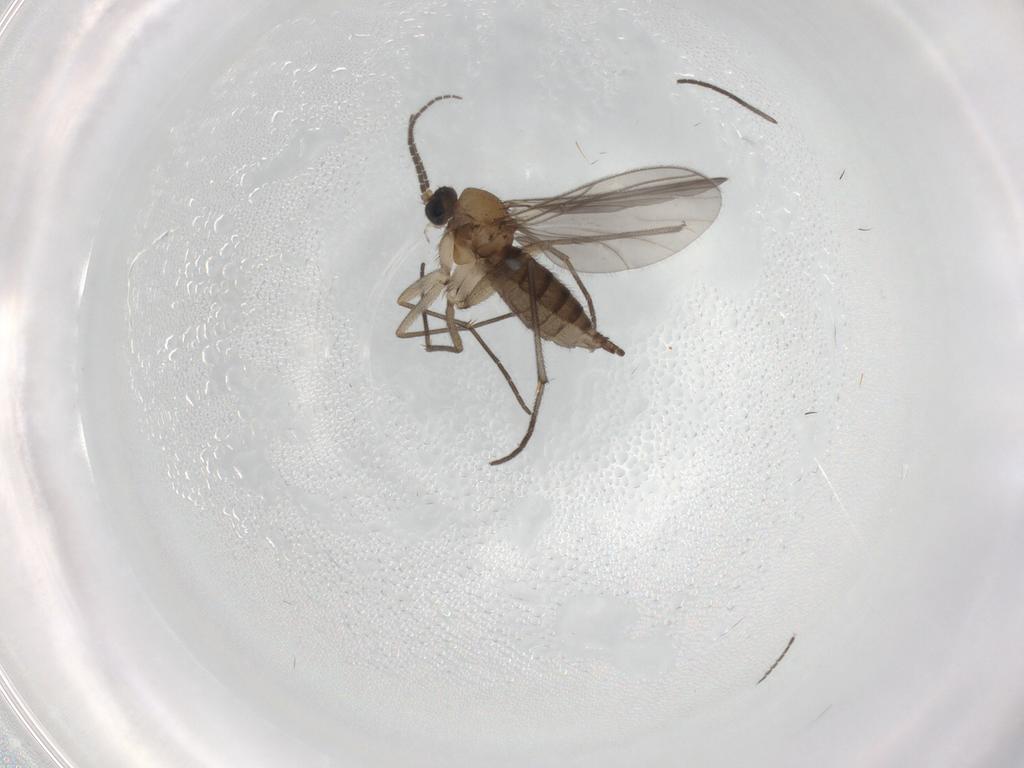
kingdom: Animalia
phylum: Arthropoda
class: Insecta
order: Diptera
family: Sciaridae
